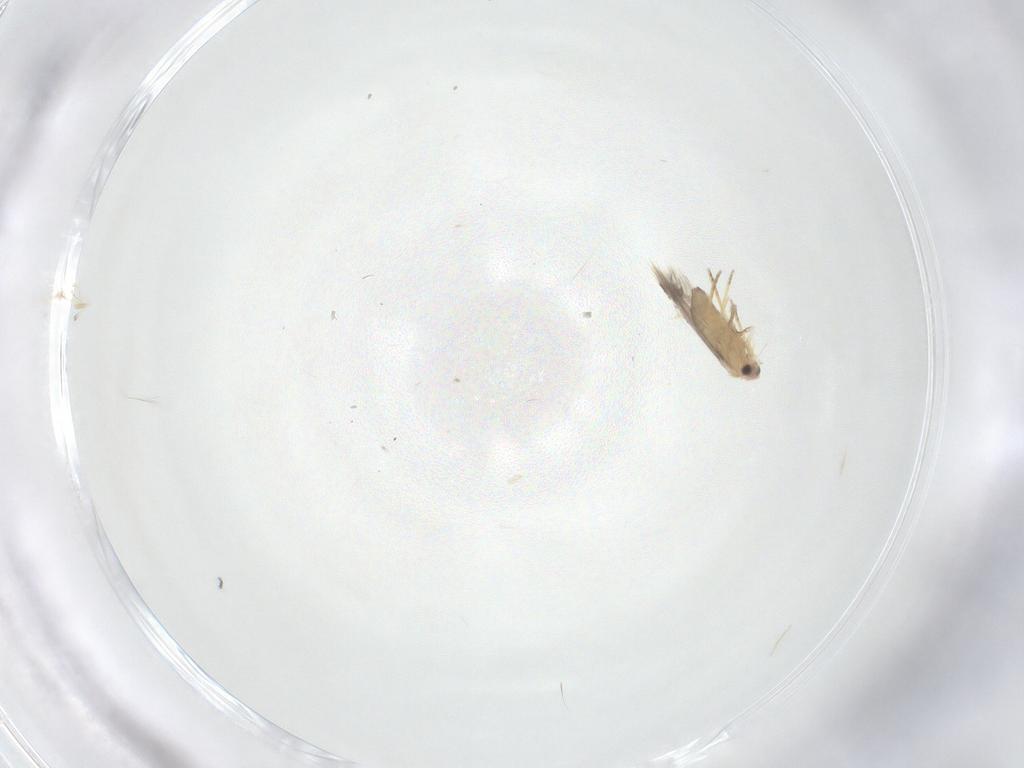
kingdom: Animalia
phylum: Arthropoda
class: Insecta
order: Lepidoptera
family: Nepticulidae
